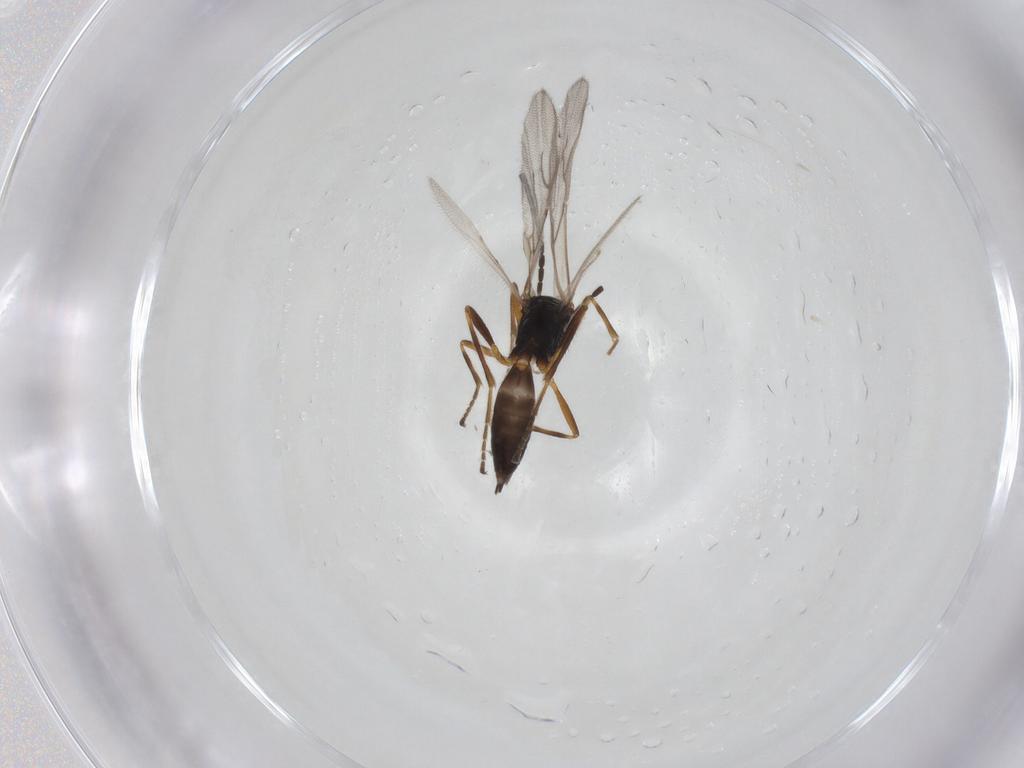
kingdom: Animalia
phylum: Arthropoda
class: Insecta
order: Hymenoptera
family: Braconidae
